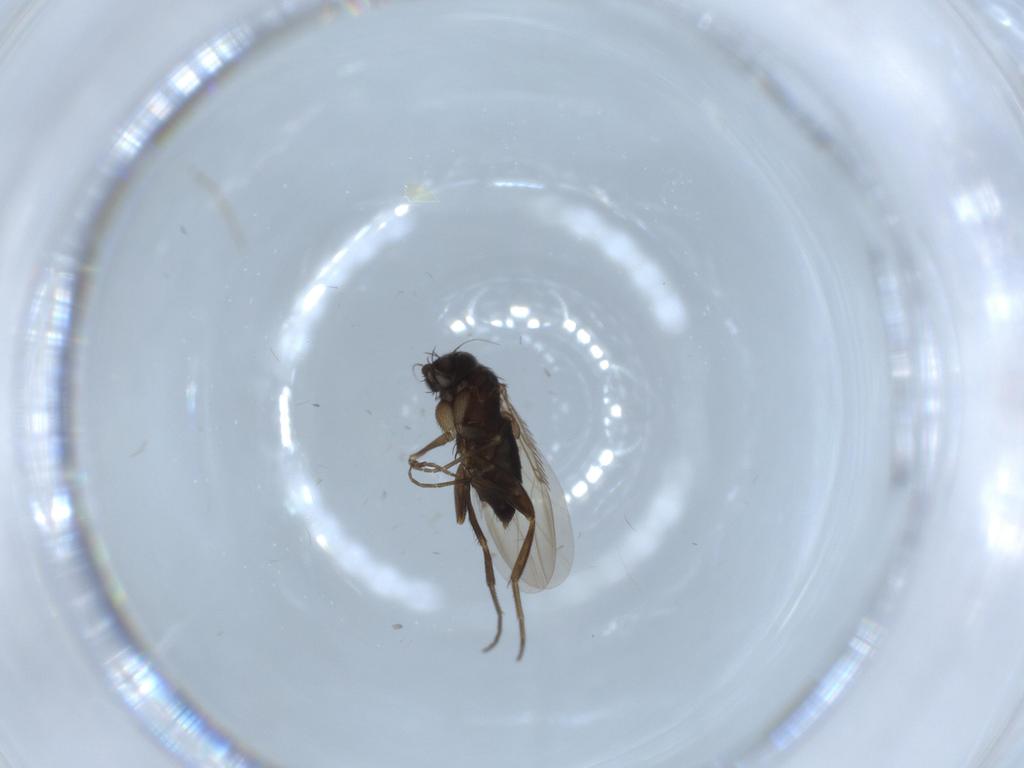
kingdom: Animalia
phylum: Arthropoda
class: Insecta
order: Diptera
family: Phoridae
